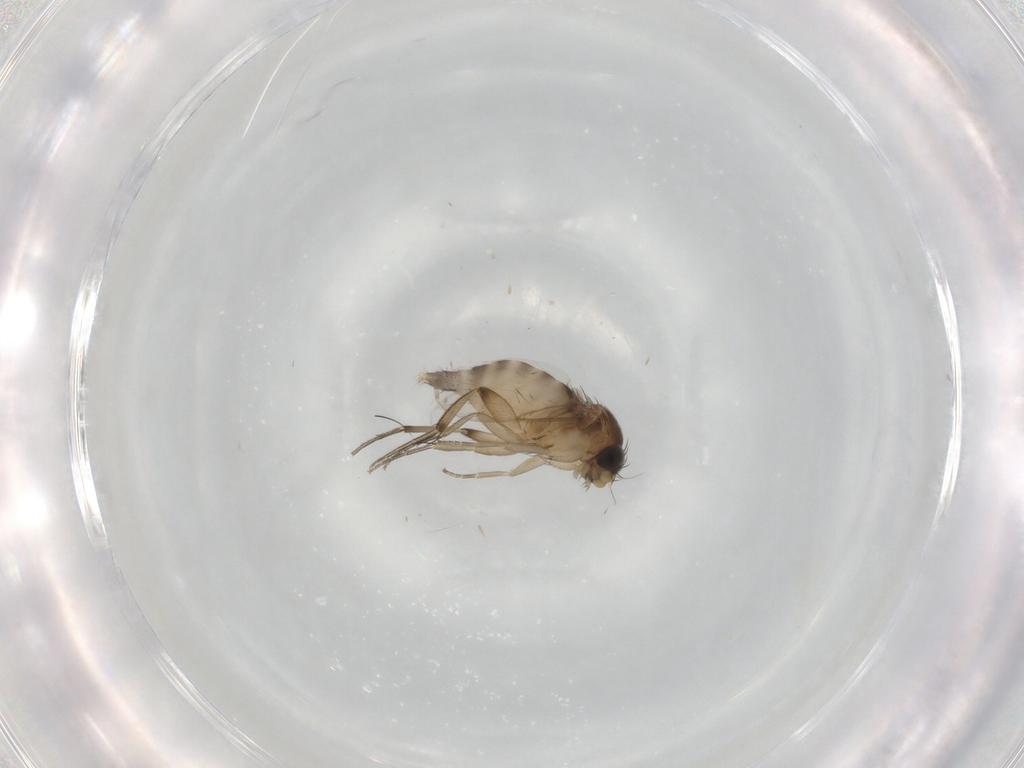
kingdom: Animalia
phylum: Arthropoda
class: Insecta
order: Diptera
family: Phoridae
